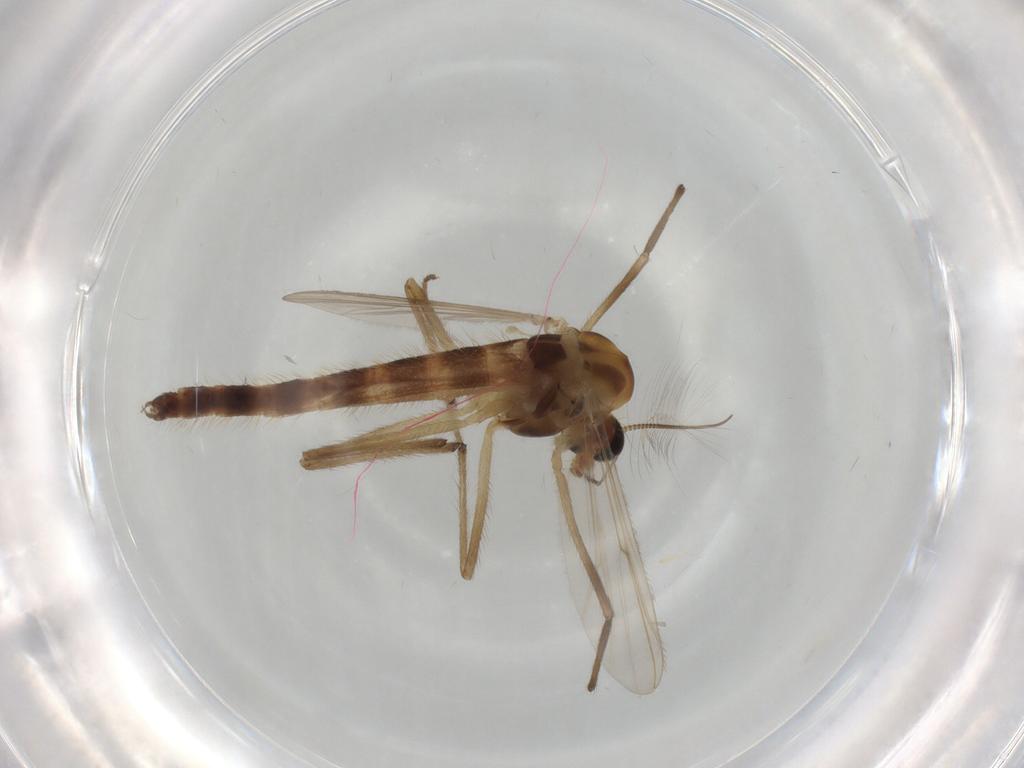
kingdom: Animalia
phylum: Arthropoda
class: Insecta
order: Diptera
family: Chironomidae
